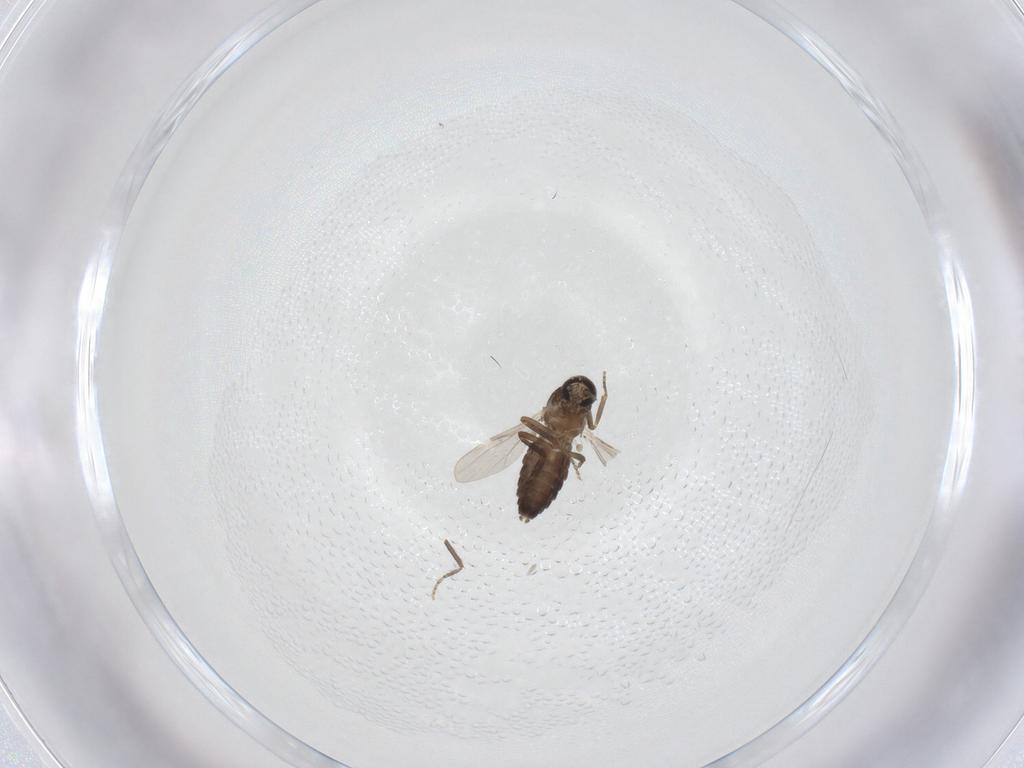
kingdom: Animalia
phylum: Arthropoda
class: Insecta
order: Diptera
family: Ceratopogonidae
